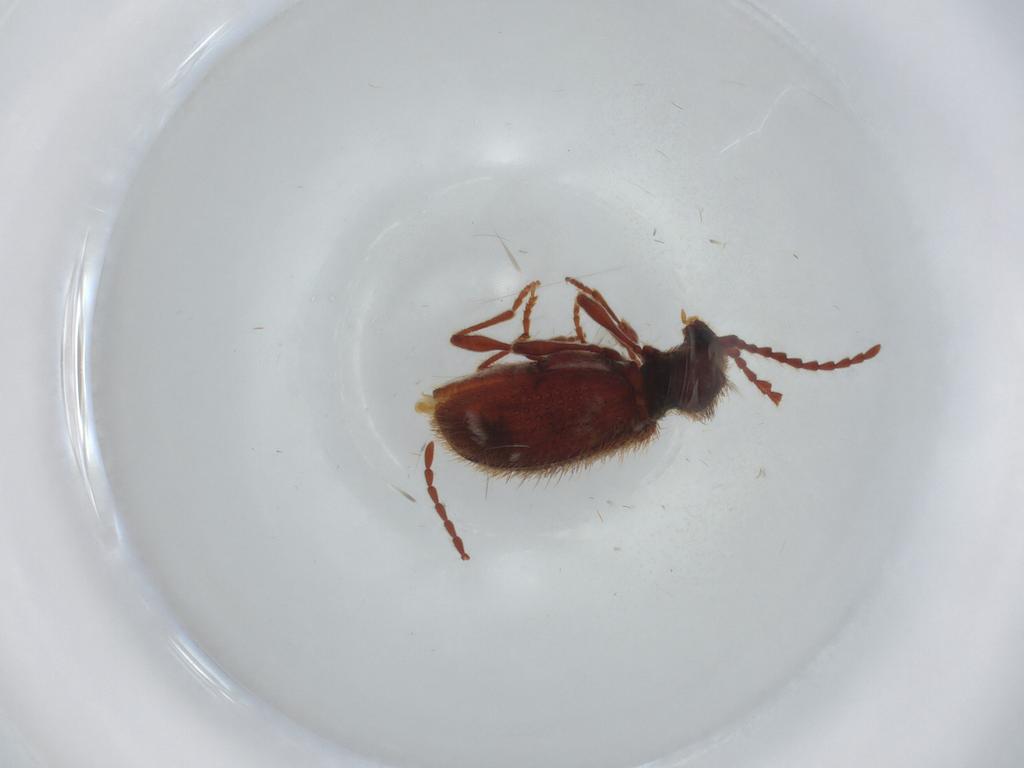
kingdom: Animalia
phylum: Arthropoda
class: Insecta
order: Coleoptera
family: Ptinidae
